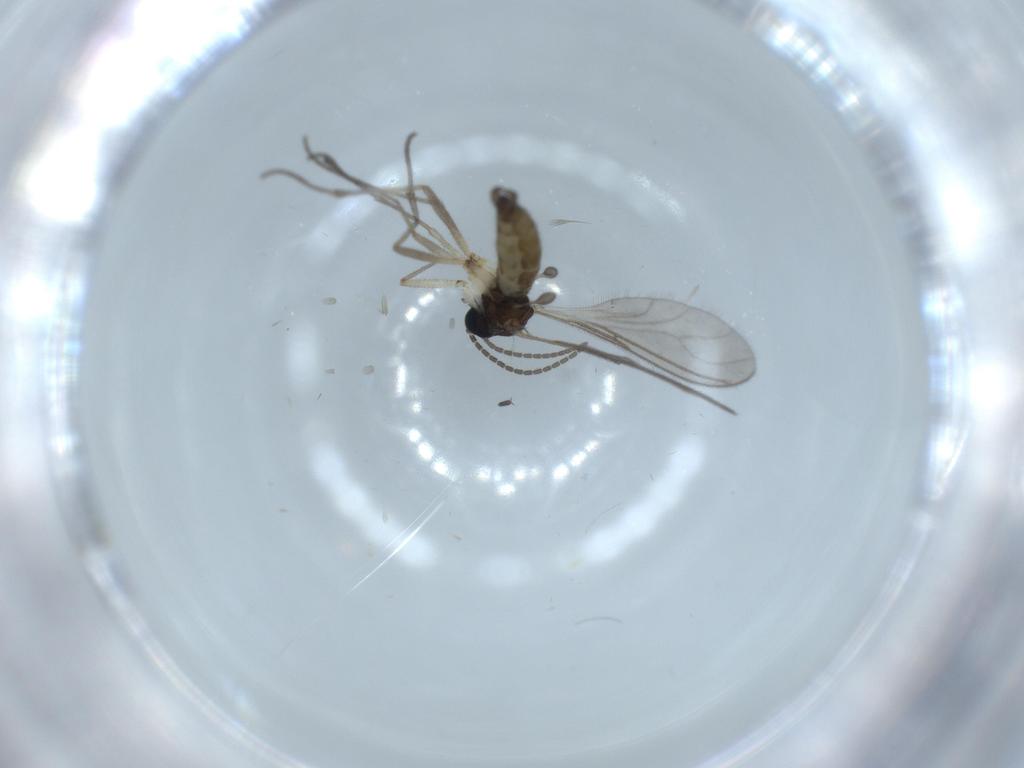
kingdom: Animalia
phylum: Arthropoda
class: Insecta
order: Diptera
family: Sciaridae
